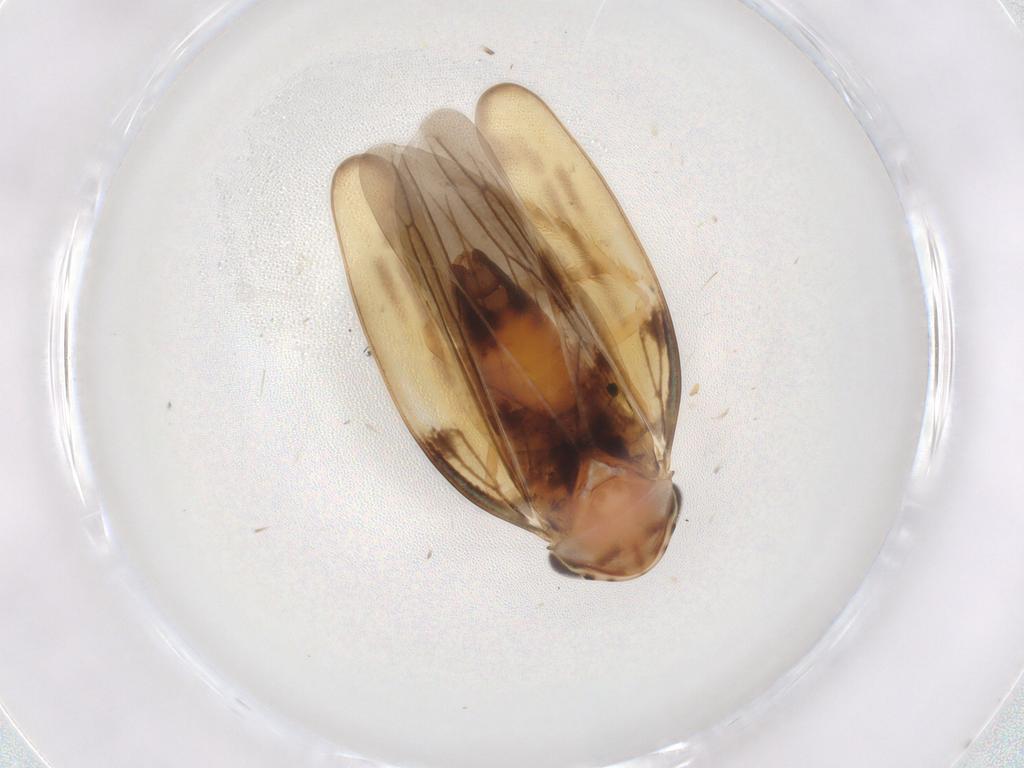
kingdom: Animalia
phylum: Arthropoda
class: Insecta
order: Hemiptera
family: Cicadellidae
